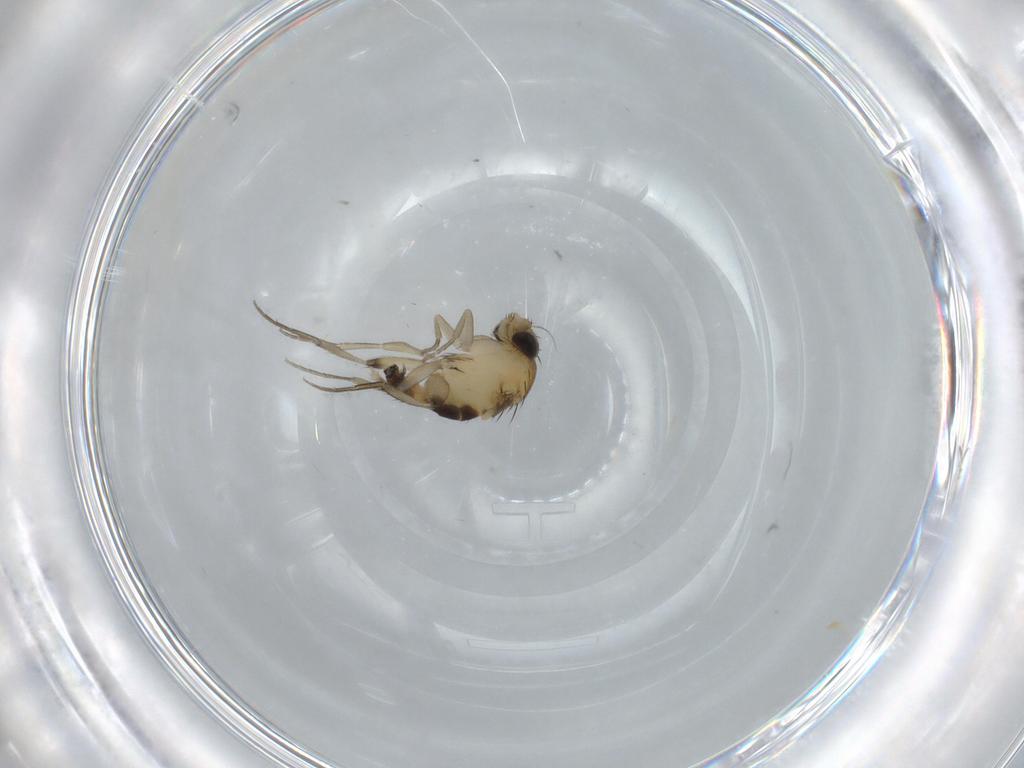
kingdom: Animalia
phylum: Arthropoda
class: Insecta
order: Diptera
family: Phoridae
